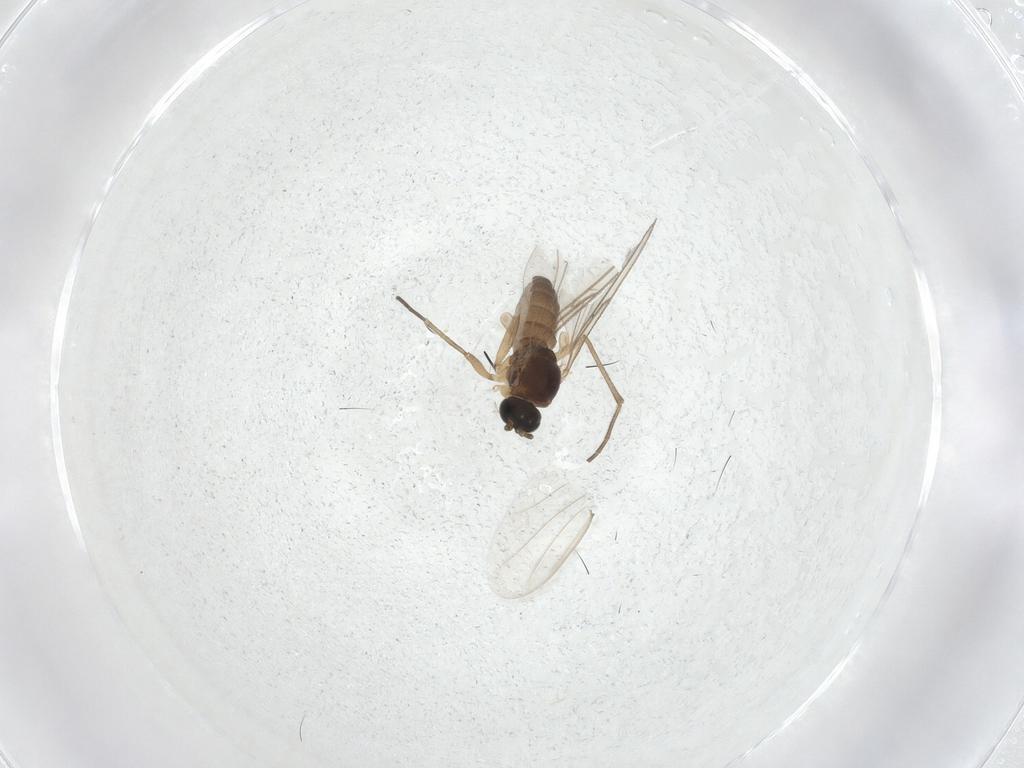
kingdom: Animalia
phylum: Arthropoda
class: Insecta
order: Diptera
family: Sciaridae
